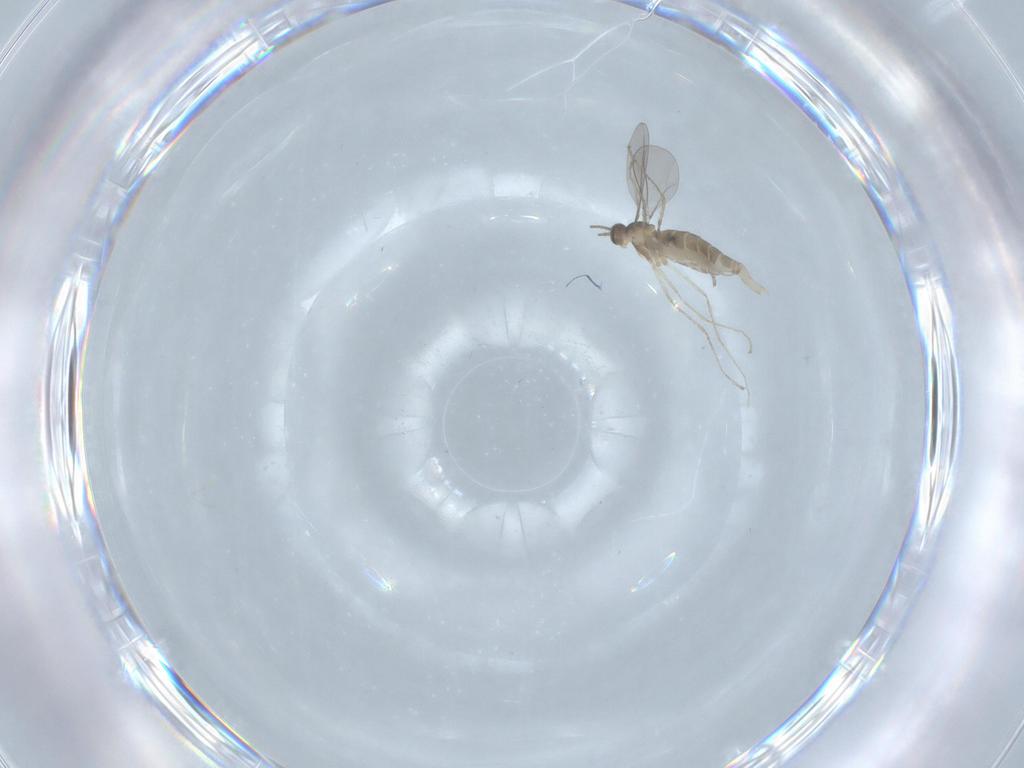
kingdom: Animalia
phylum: Arthropoda
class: Insecta
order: Diptera
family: Cecidomyiidae
